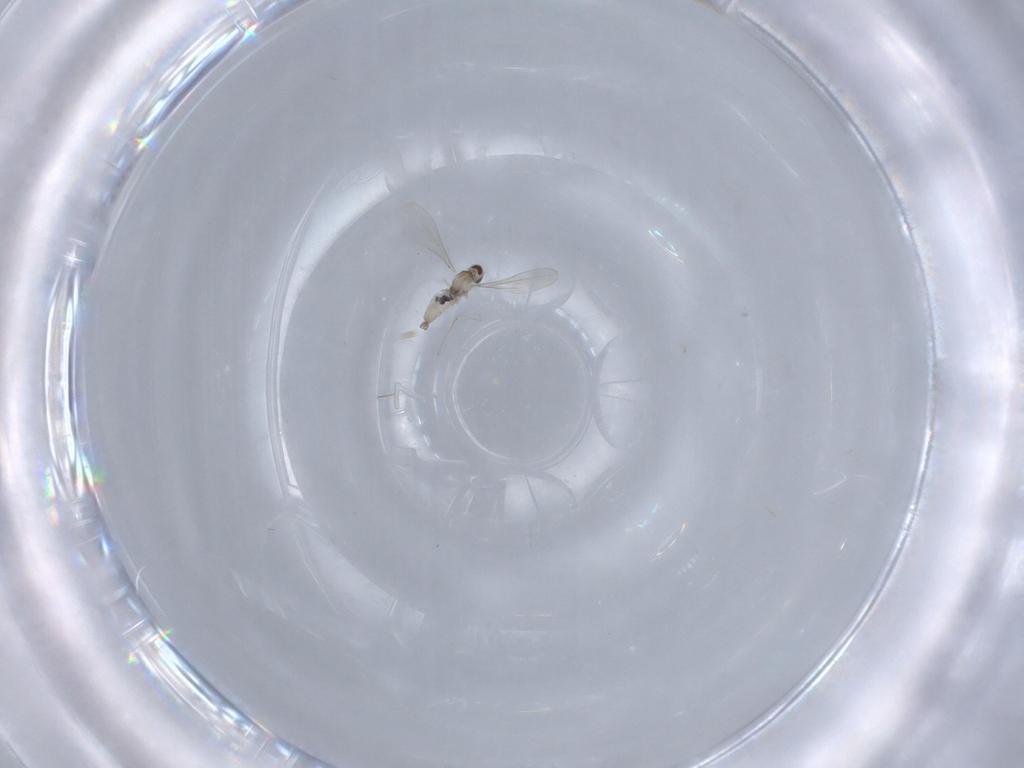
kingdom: Animalia
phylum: Arthropoda
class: Insecta
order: Diptera
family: Cecidomyiidae
